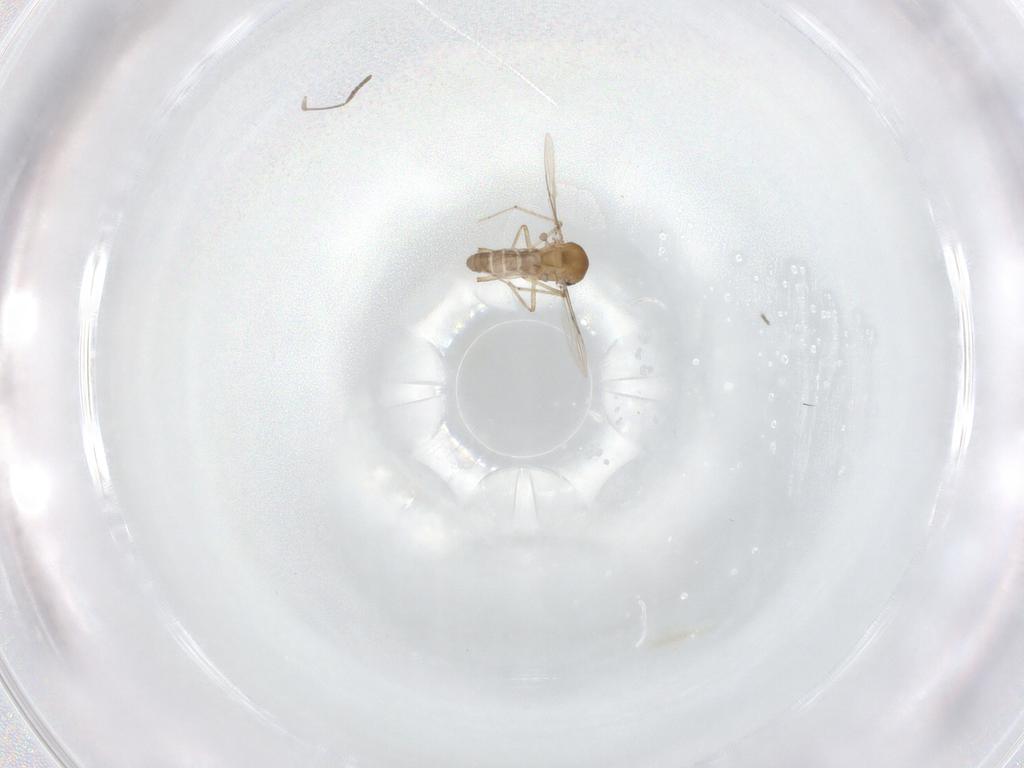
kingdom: Animalia
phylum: Arthropoda
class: Insecta
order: Diptera
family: Sciaridae
